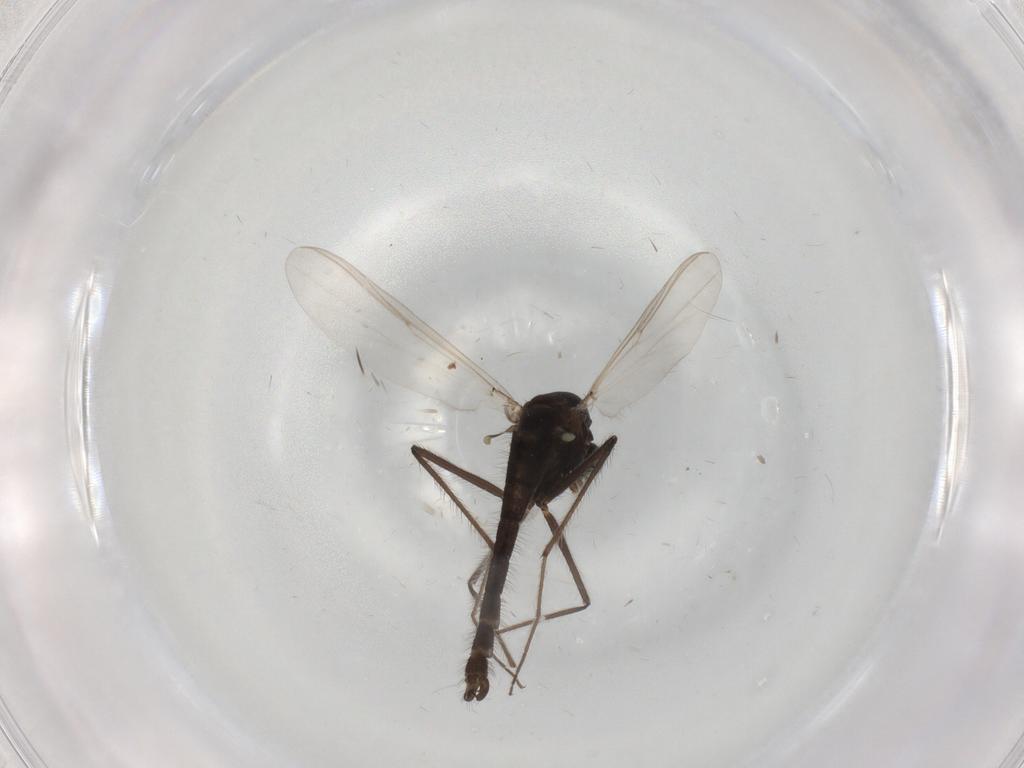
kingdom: Animalia
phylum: Arthropoda
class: Insecta
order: Diptera
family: Chironomidae
